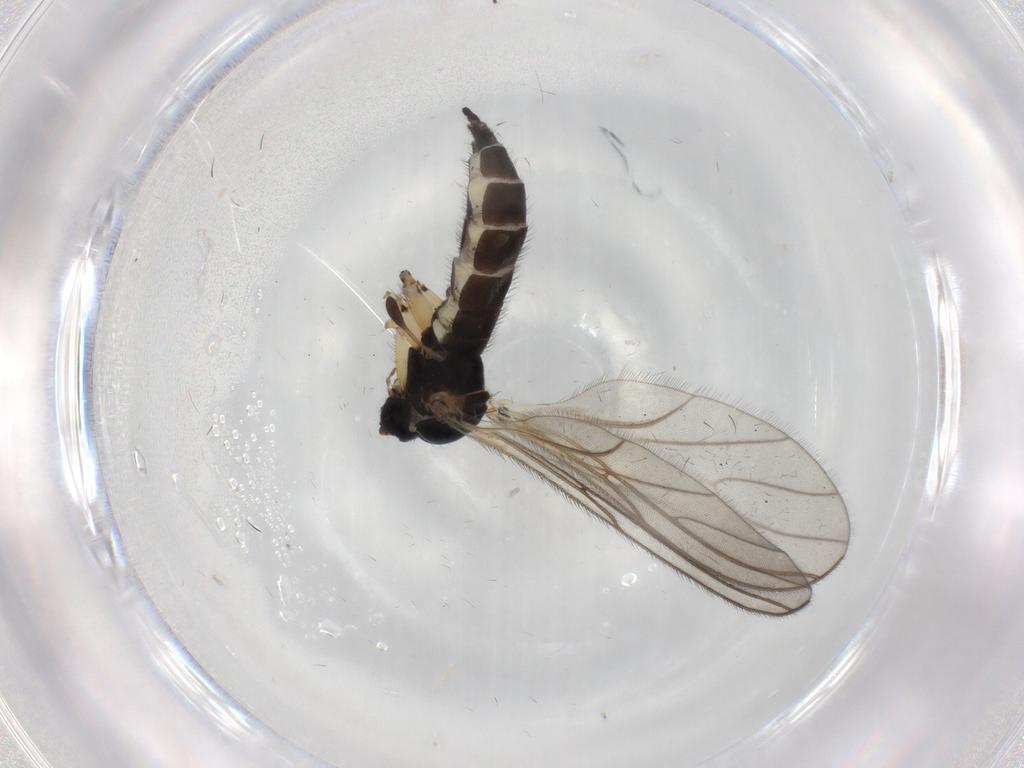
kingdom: Animalia
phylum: Arthropoda
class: Insecta
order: Diptera
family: Sciaridae
